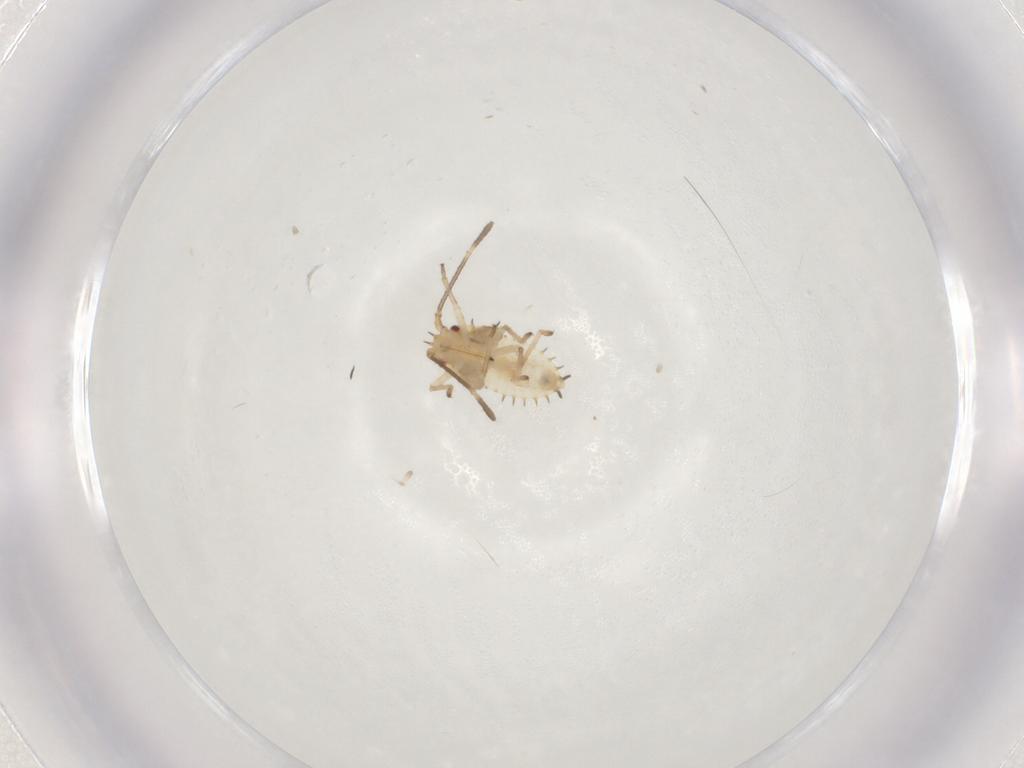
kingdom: Animalia
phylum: Arthropoda
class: Insecta
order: Hemiptera
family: Tingidae
